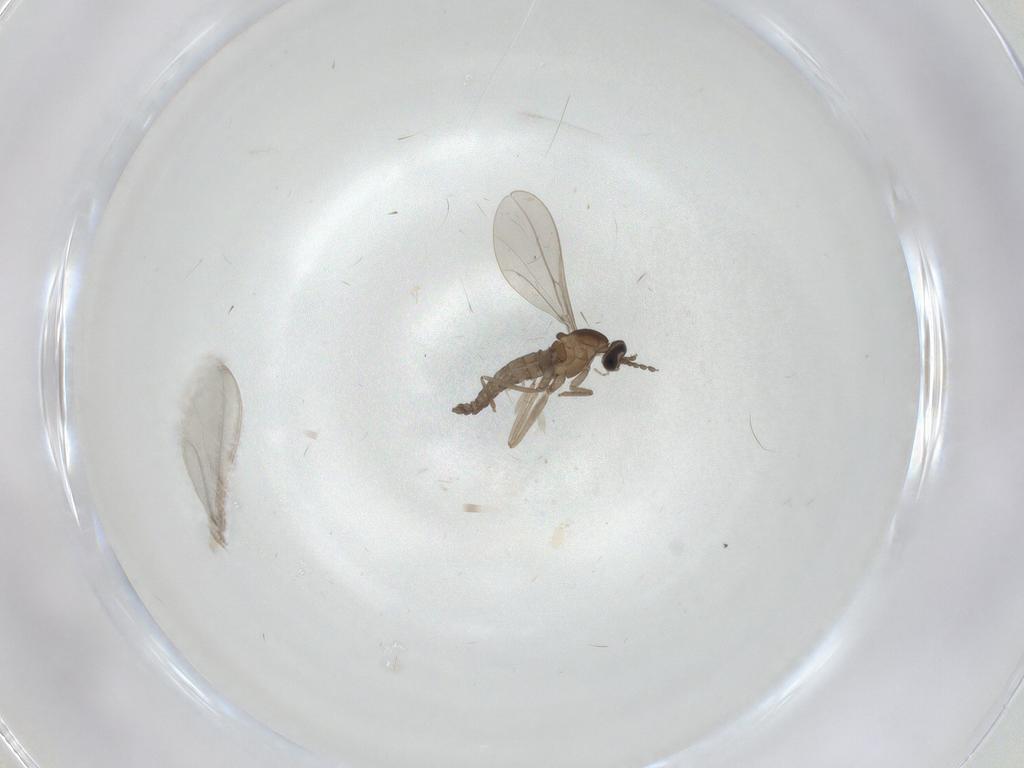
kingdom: Animalia
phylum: Arthropoda
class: Insecta
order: Diptera
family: Cecidomyiidae
